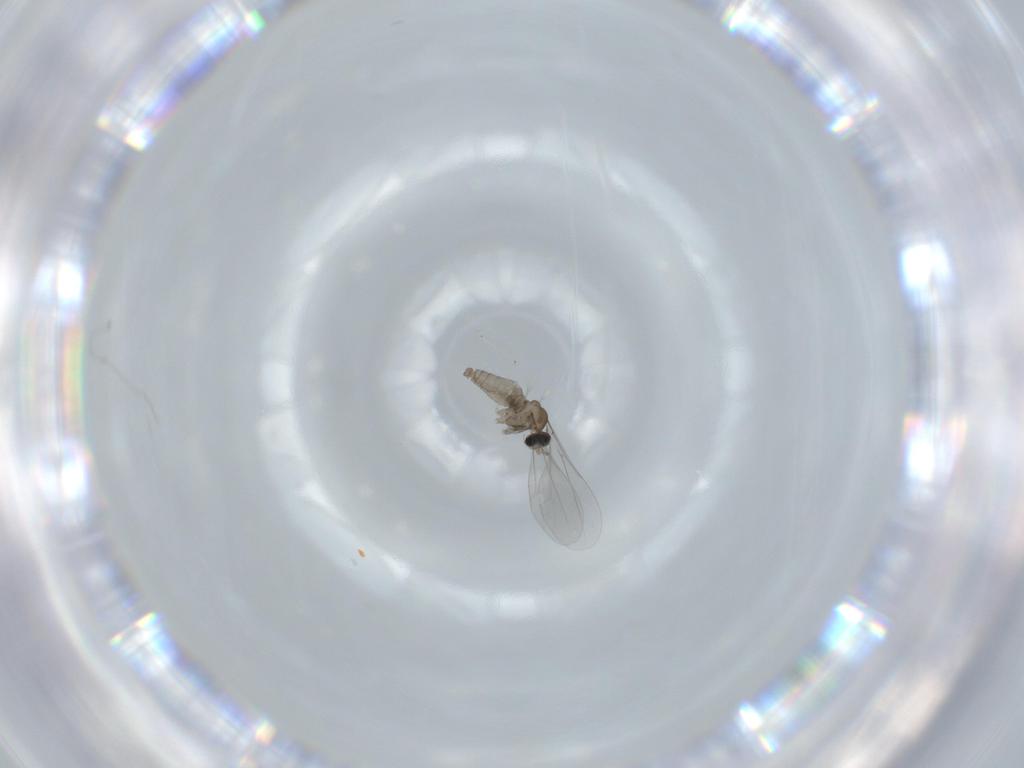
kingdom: Animalia
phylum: Arthropoda
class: Insecta
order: Diptera
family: Cecidomyiidae
